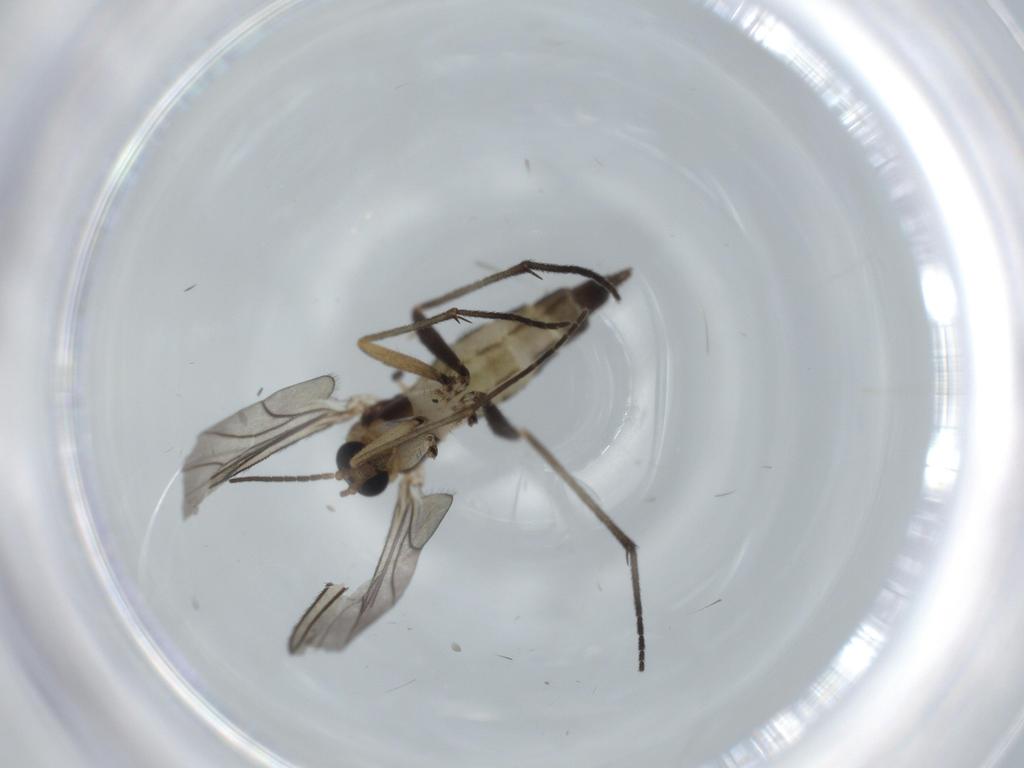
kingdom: Animalia
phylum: Arthropoda
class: Insecta
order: Diptera
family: Sciaridae
